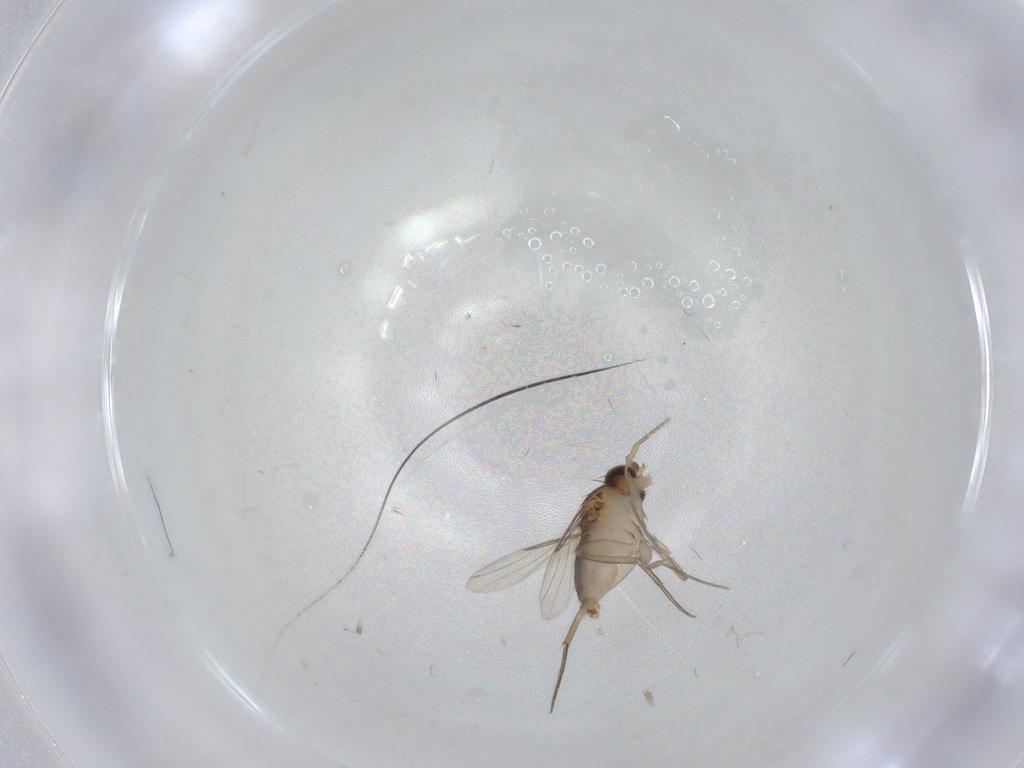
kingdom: Animalia
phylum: Arthropoda
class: Insecta
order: Diptera
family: Phoridae
